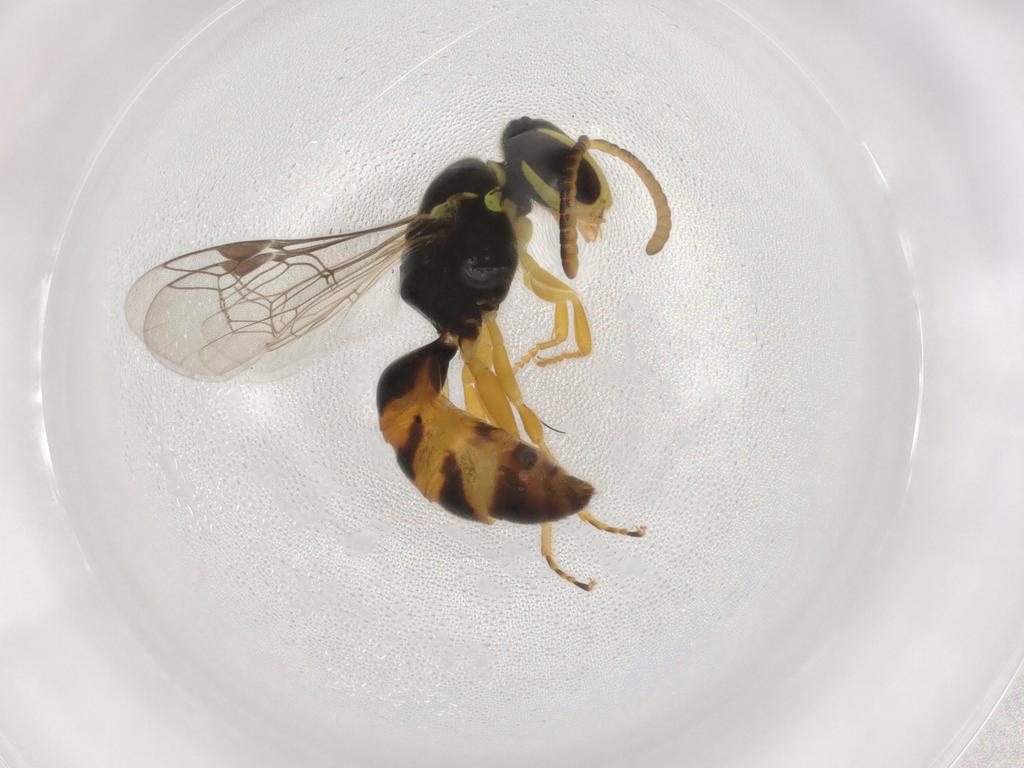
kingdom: Animalia
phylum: Arthropoda
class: Insecta
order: Hymenoptera
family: Colletidae
